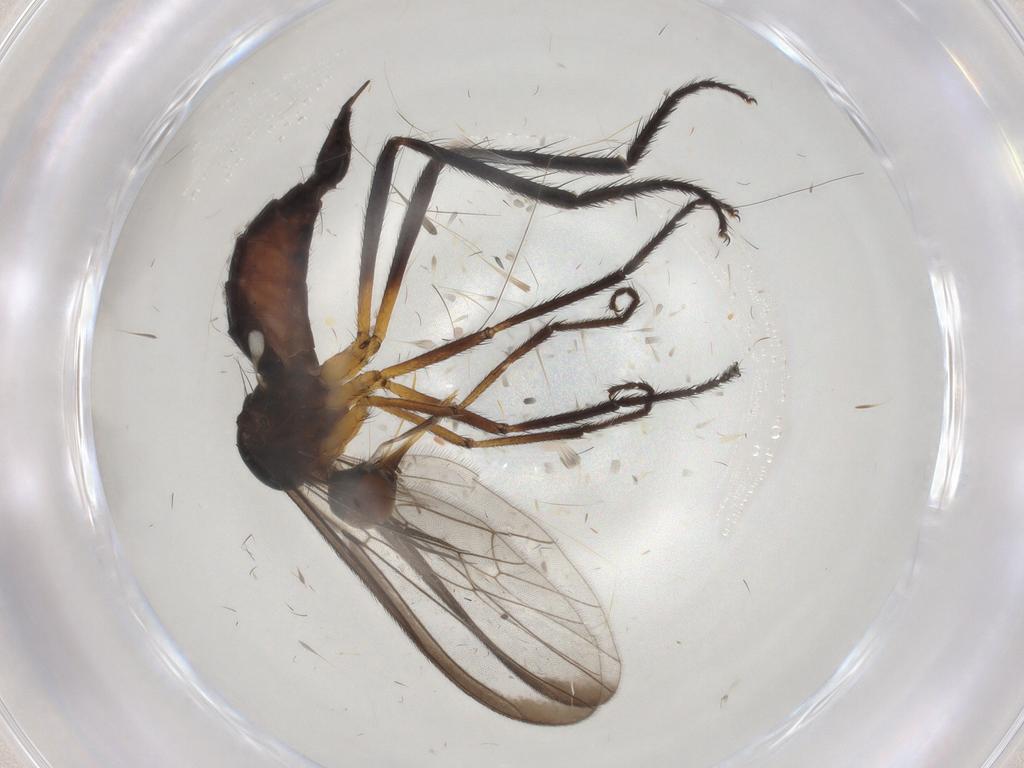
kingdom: Animalia
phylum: Arthropoda
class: Insecta
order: Diptera
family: Empididae
